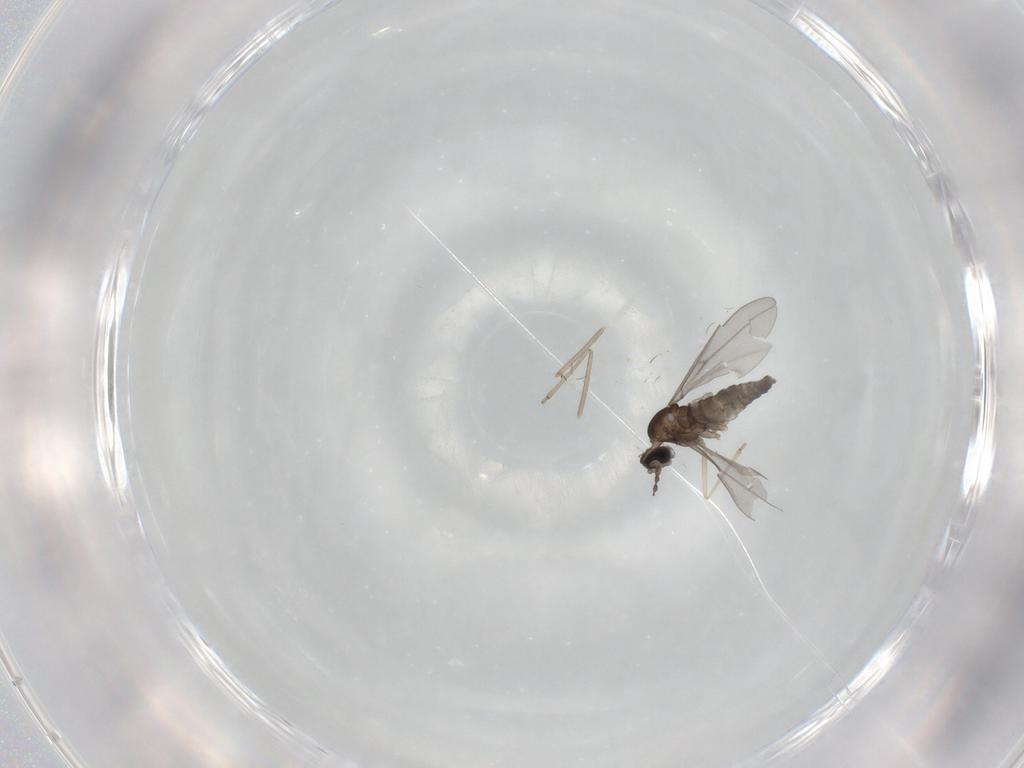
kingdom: Animalia
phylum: Arthropoda
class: Insecta
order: Diptera
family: Cecidomyiidae
